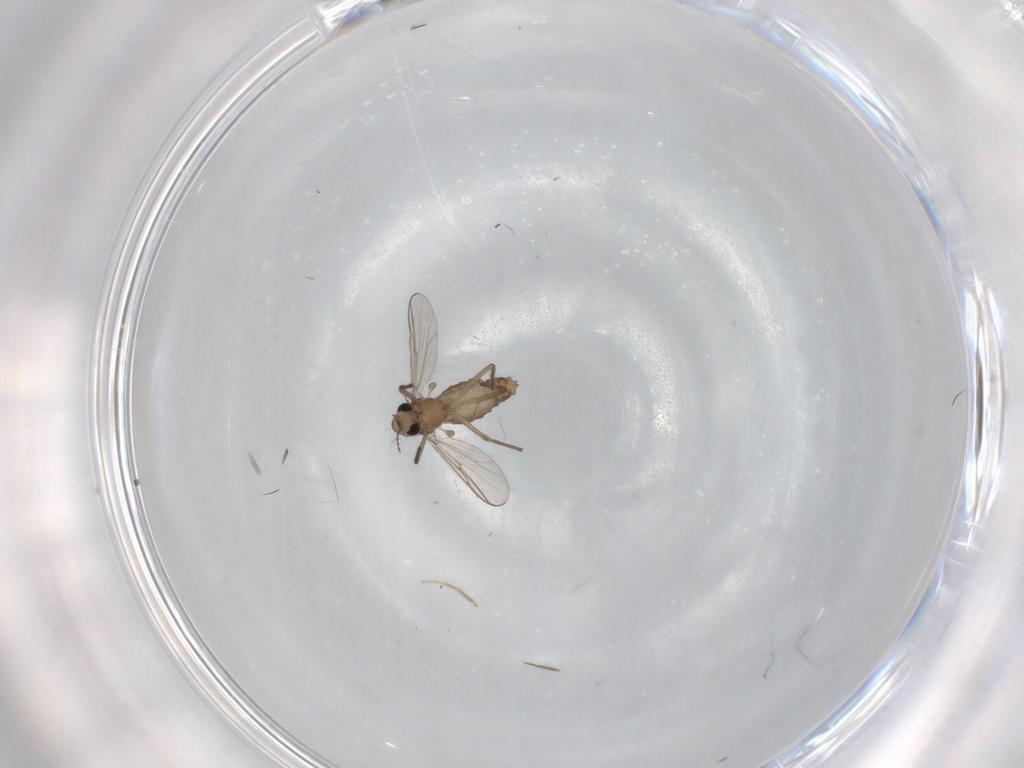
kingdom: Animalia
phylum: Arthropoda
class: Insecta
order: Diptera
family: Chironomidae
